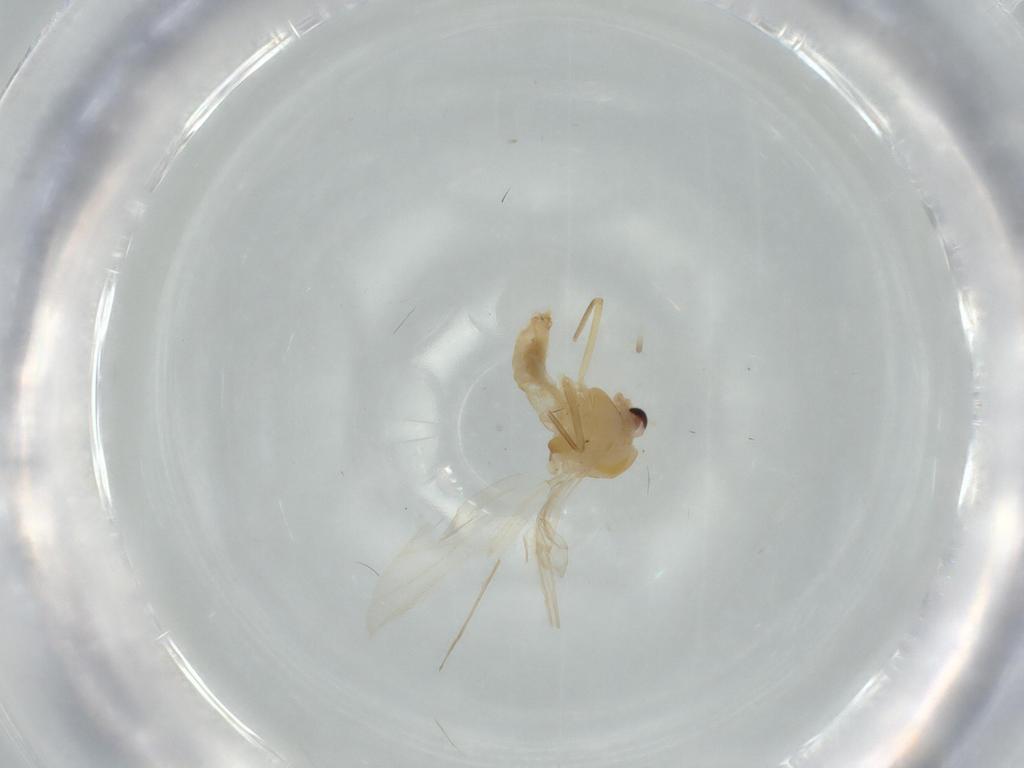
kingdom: Animalia
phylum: Arthropoda
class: Insecta
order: Diptera
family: Chironomidae
